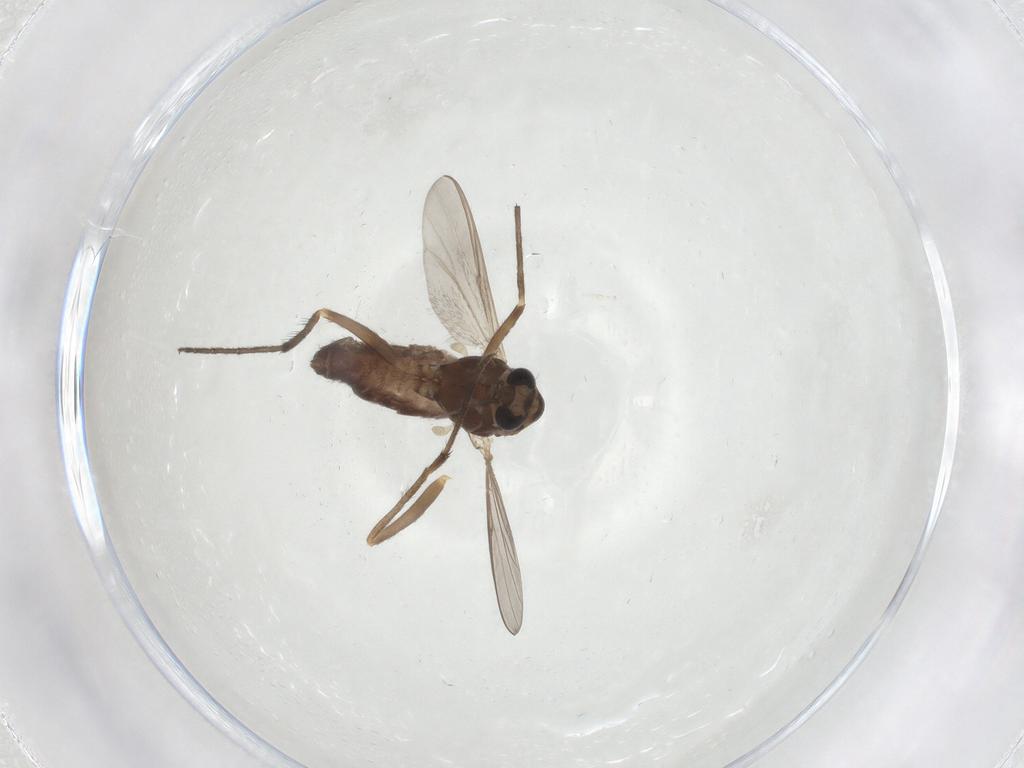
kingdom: Animalia
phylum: Arthropoda
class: Insecta
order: Diptera
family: Chironomidae
